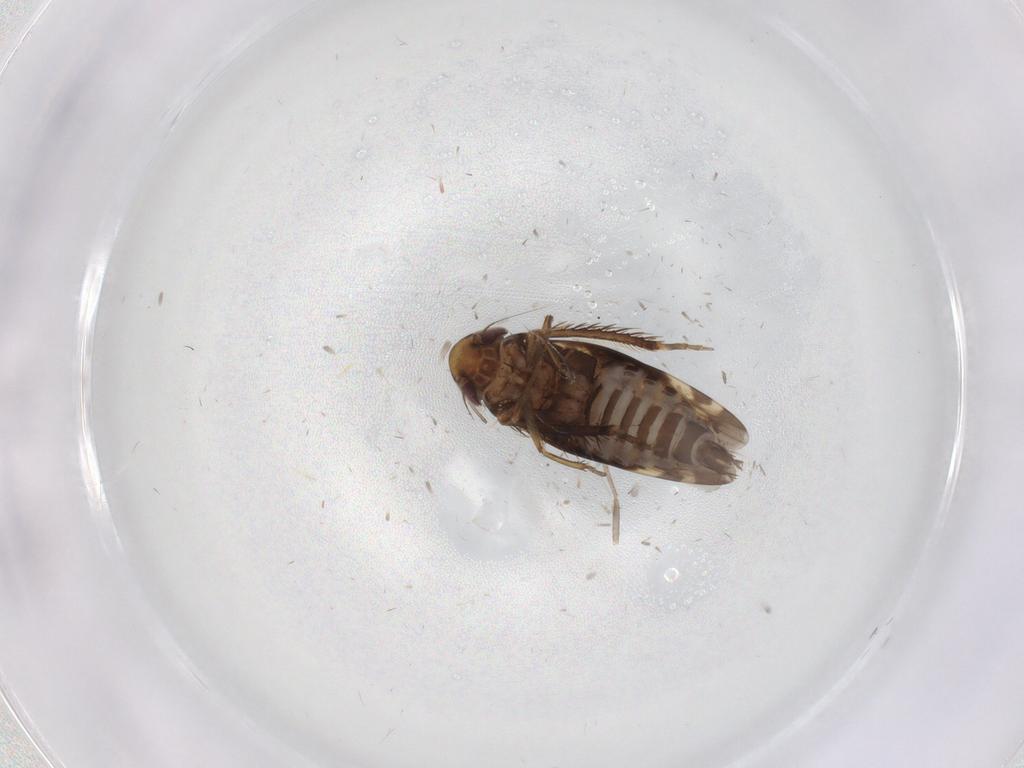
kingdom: Animalia
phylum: Arthropoda
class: Insecta
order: Hemiptera
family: Cicadellidae
